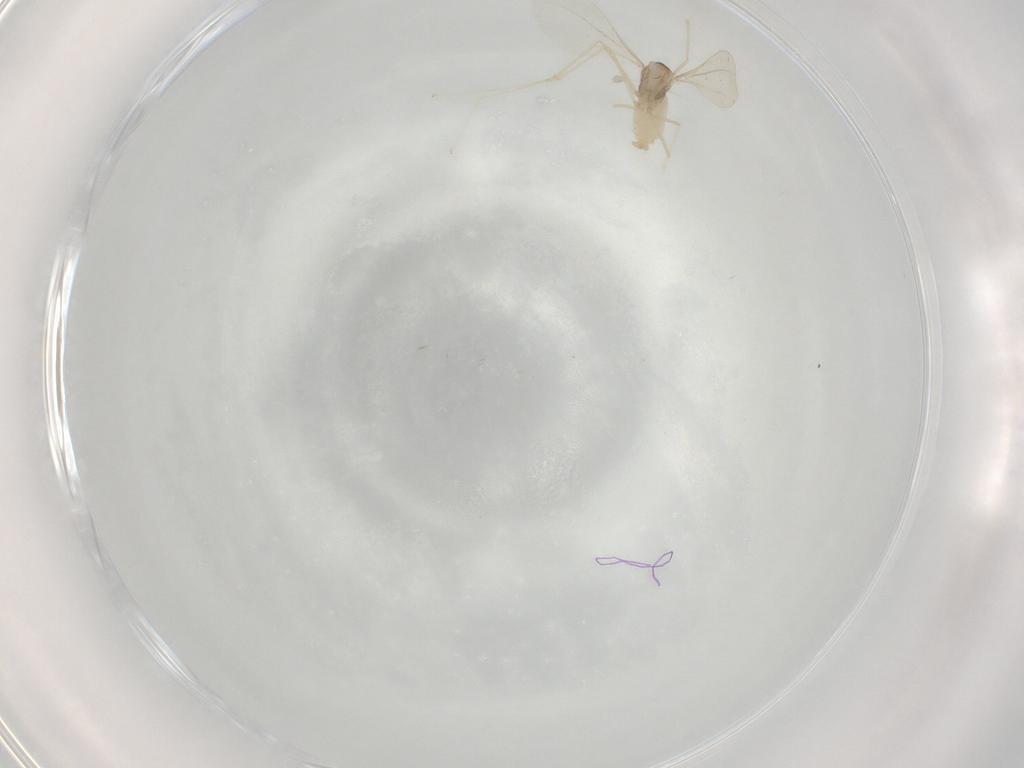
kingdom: Animalia
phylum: Arthropoda
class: Insecta
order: Diptera
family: Cecidomyiidae
